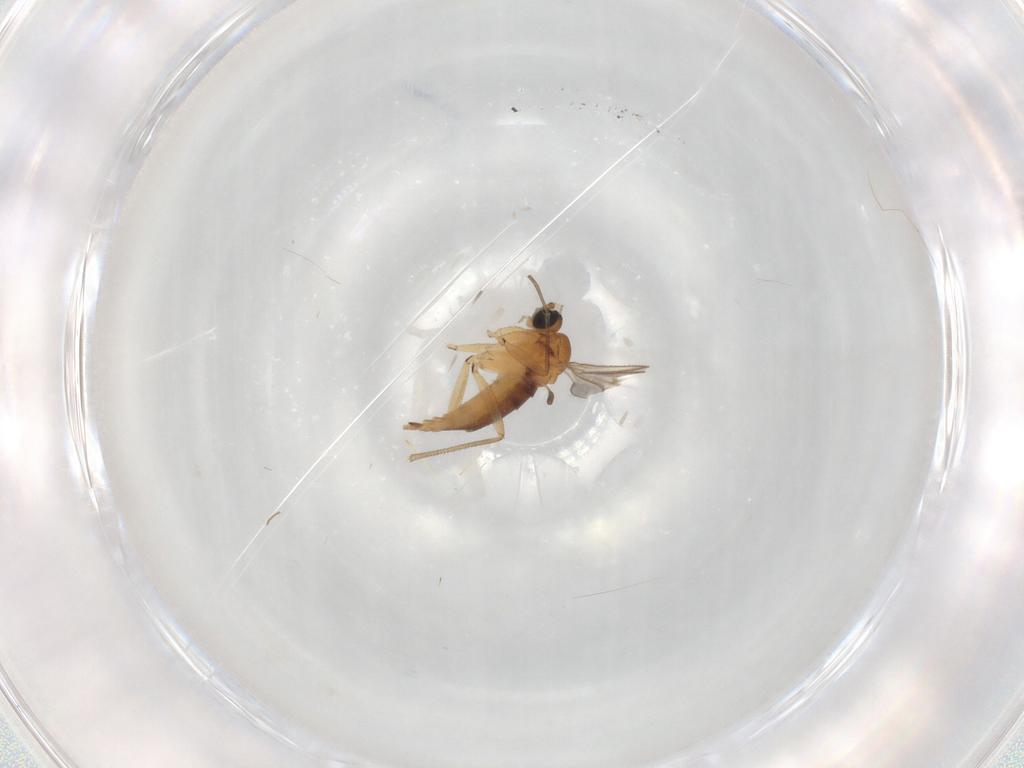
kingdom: Animalia
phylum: Arthropoda
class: Insecta
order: Diptera
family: Sciaridae
